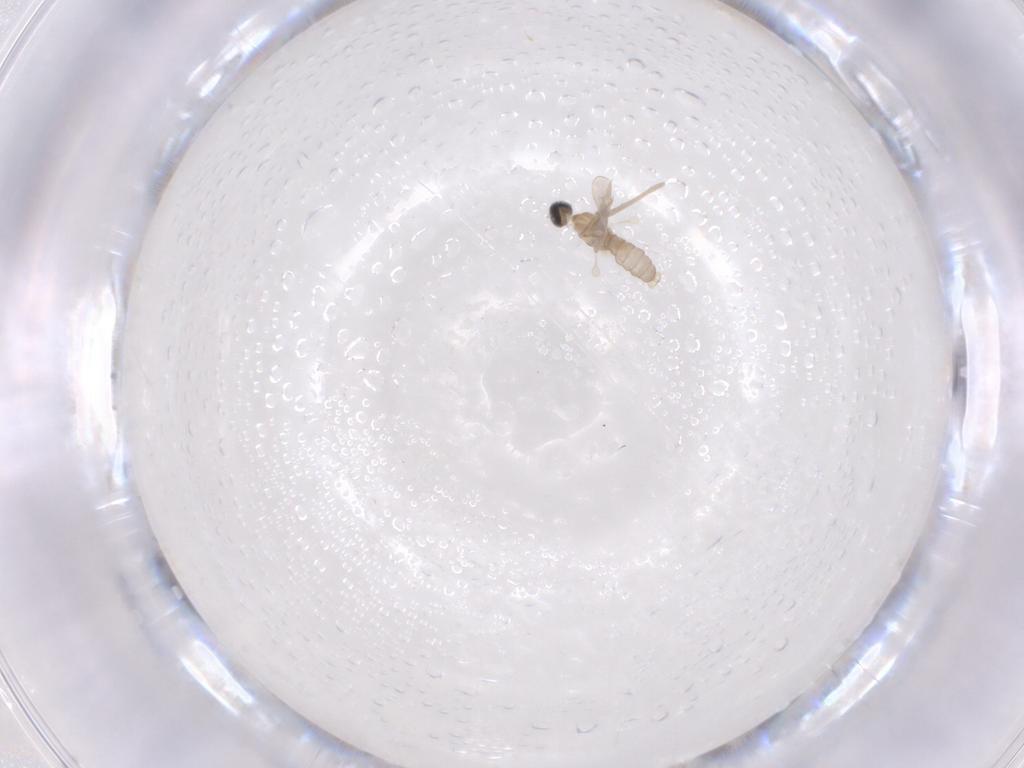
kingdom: Animalia
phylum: Arthropoda
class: Insecta
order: Diptera
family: Cecidomyiidae
